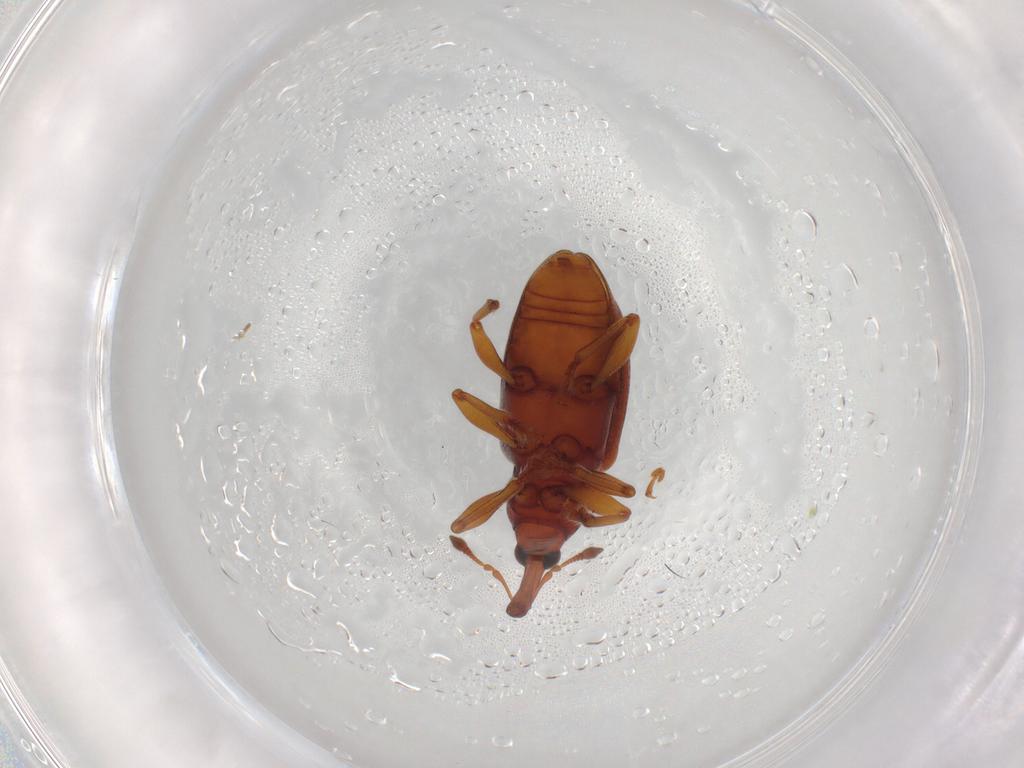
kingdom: Animalia
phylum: Arthropoda
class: Insecta
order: Coleoptera
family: Curculionidae
